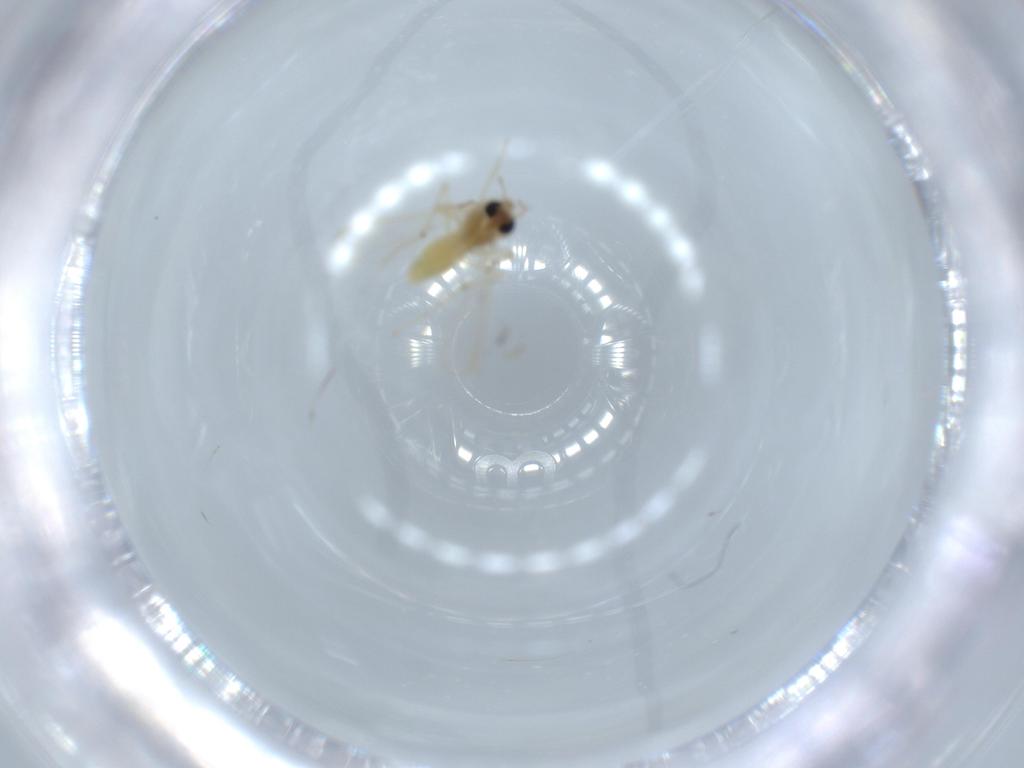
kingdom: Animalia
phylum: Arthropoda
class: Insecta
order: Diptera
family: Chironomidae
